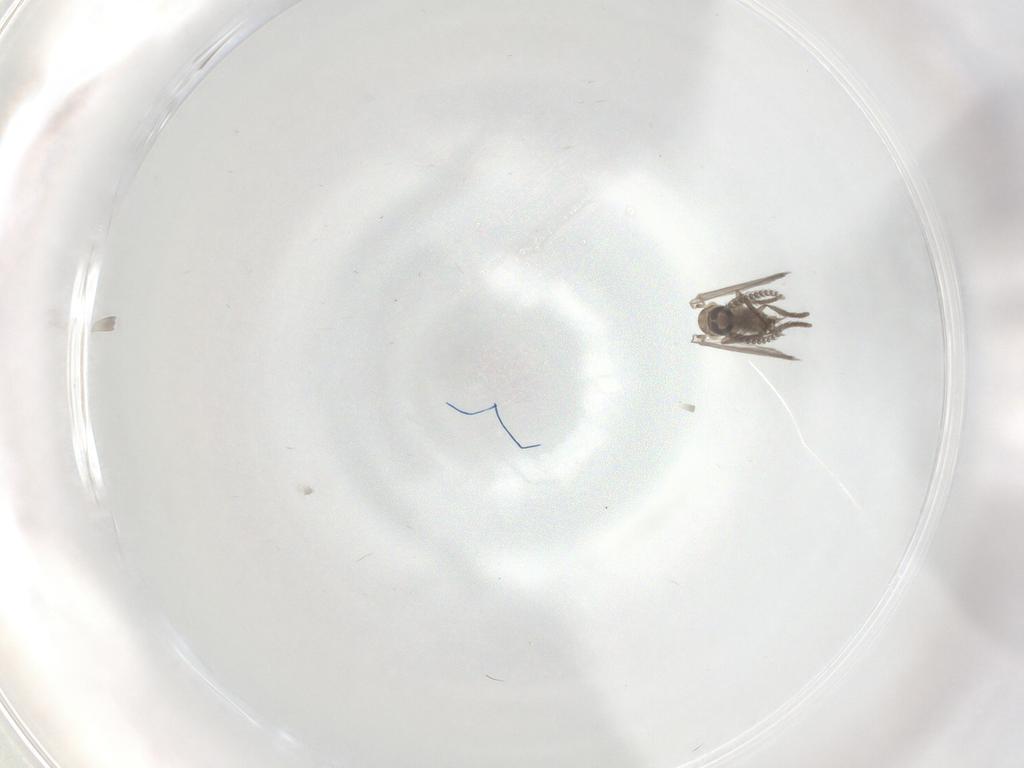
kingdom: Animalia
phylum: Arthropoda
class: Insecta
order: Diptera
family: Psychodidae
